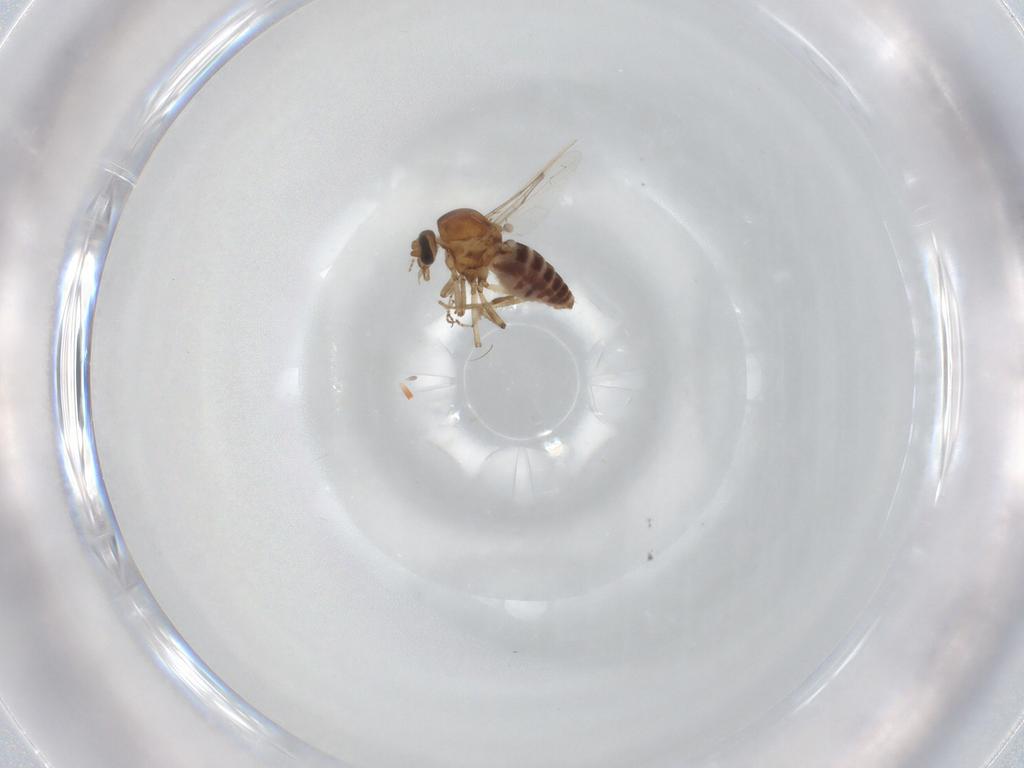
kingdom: Animalia
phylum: Arthropoda
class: Insecta
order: Diptera
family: Ceratopogonidae
